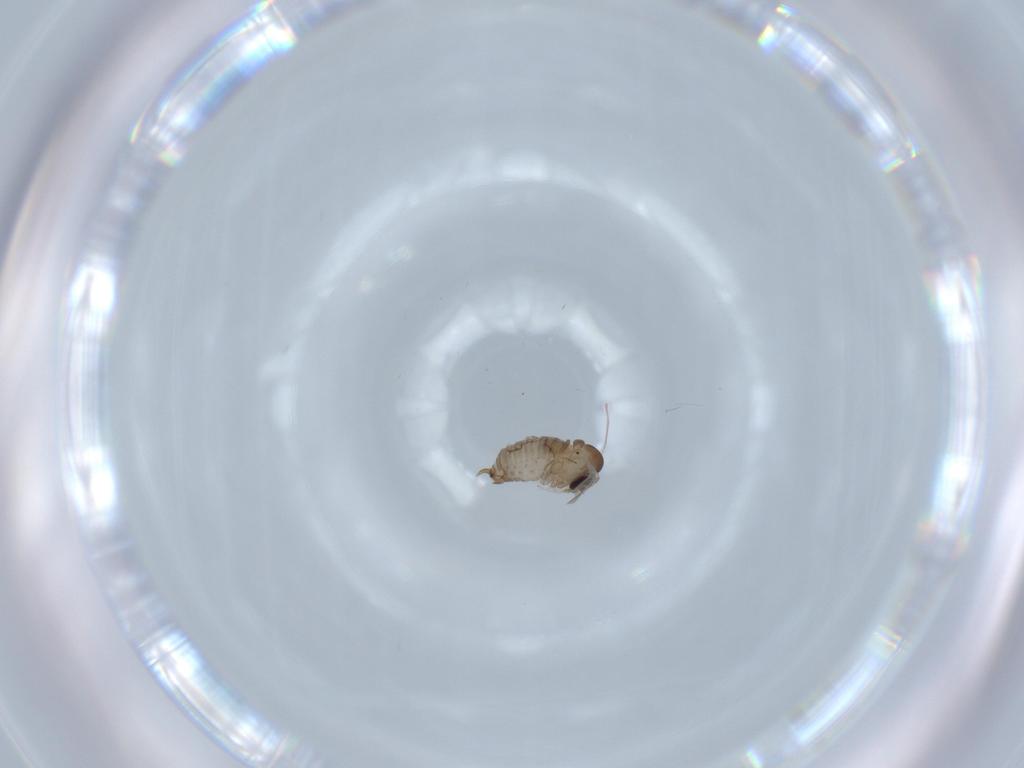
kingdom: Animalia
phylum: Arthropoda
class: Insecta
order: Diptera
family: Psychodidae
